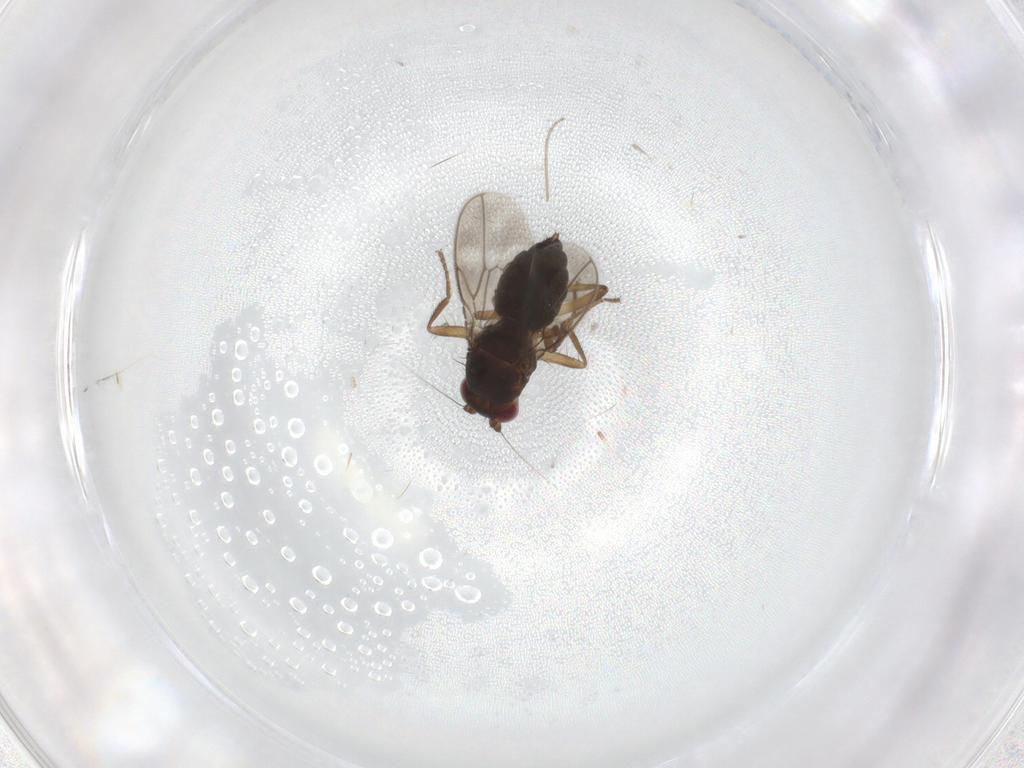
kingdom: Animalia
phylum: Arthropoda
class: Insecta
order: Diptera
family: Sphaeroceridae
